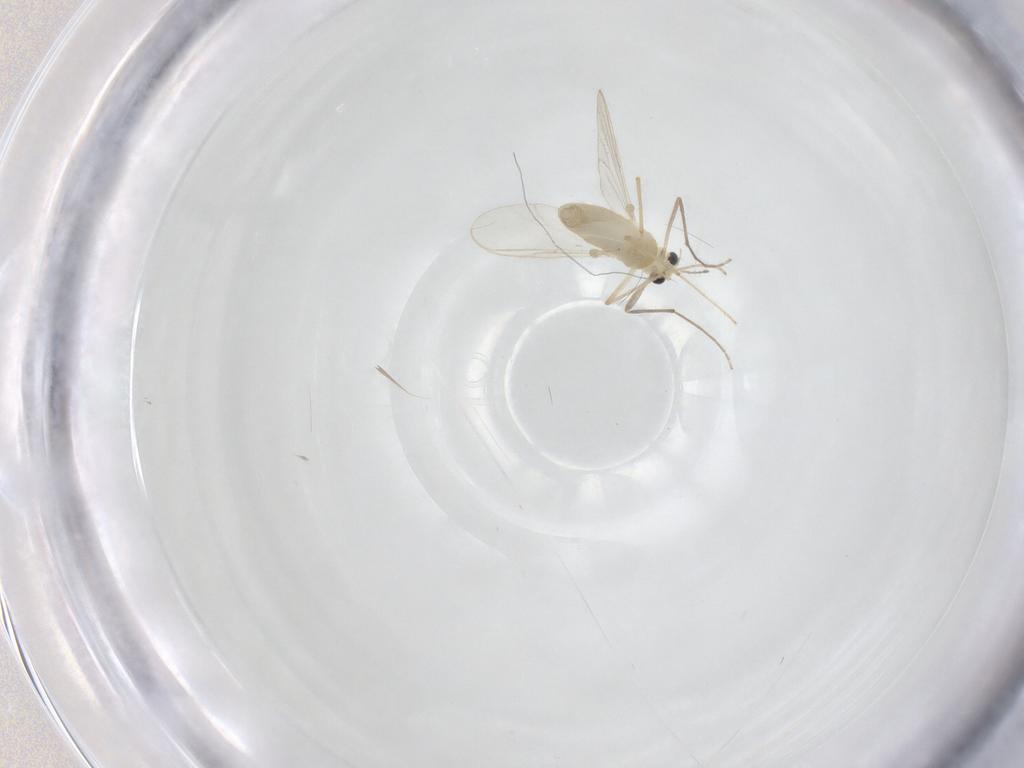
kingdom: Animalia
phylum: Arthropoda
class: Insecta
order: Diptera
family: Chironomidae
